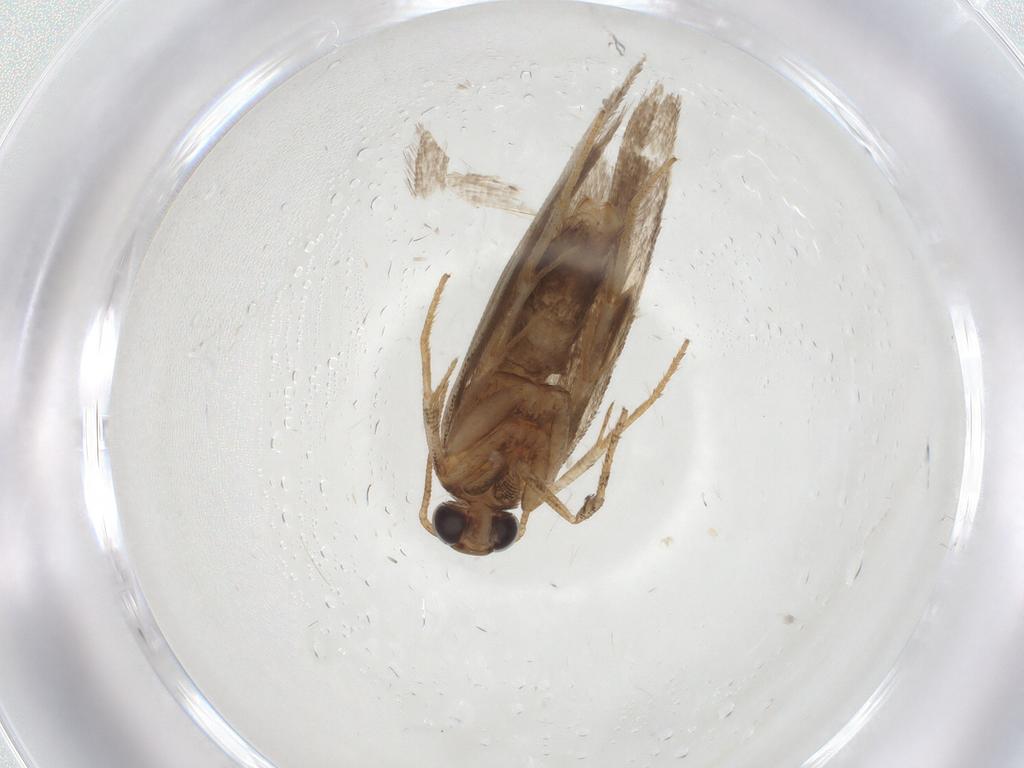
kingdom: Animalia
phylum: Arthropoda
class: Insecta
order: Lepidoptera
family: Gelechiidae
